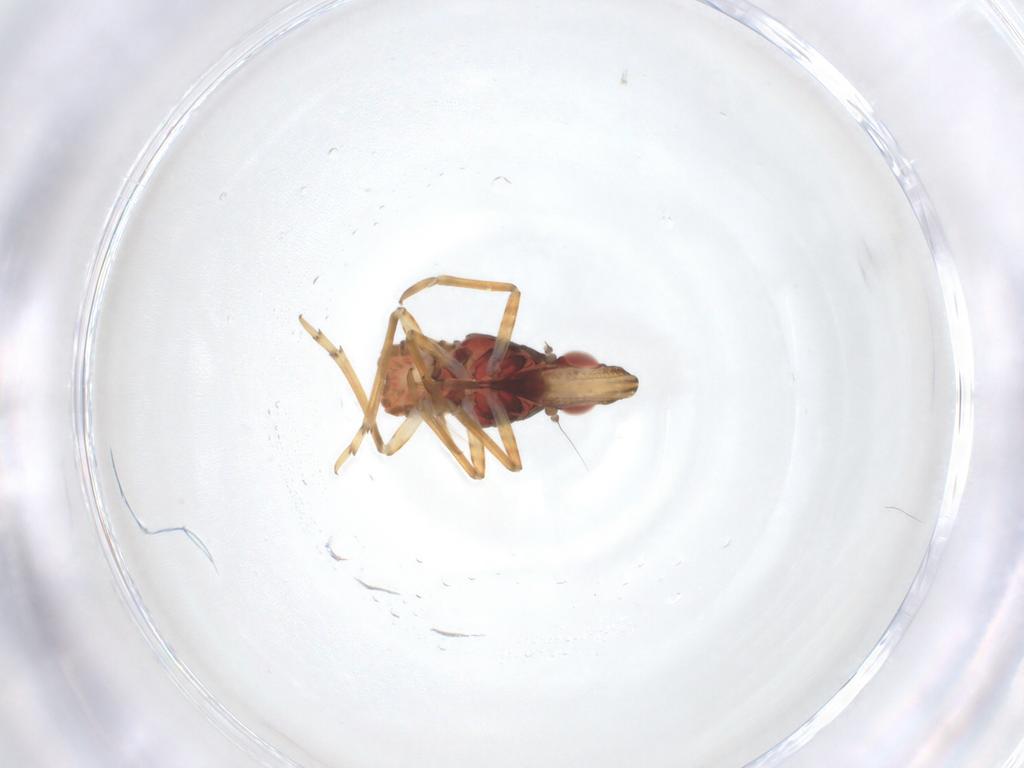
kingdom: Animalia
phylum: Arthropoda
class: Insecta
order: Hemiptera
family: Fulgoroidea_incertae_sedis
